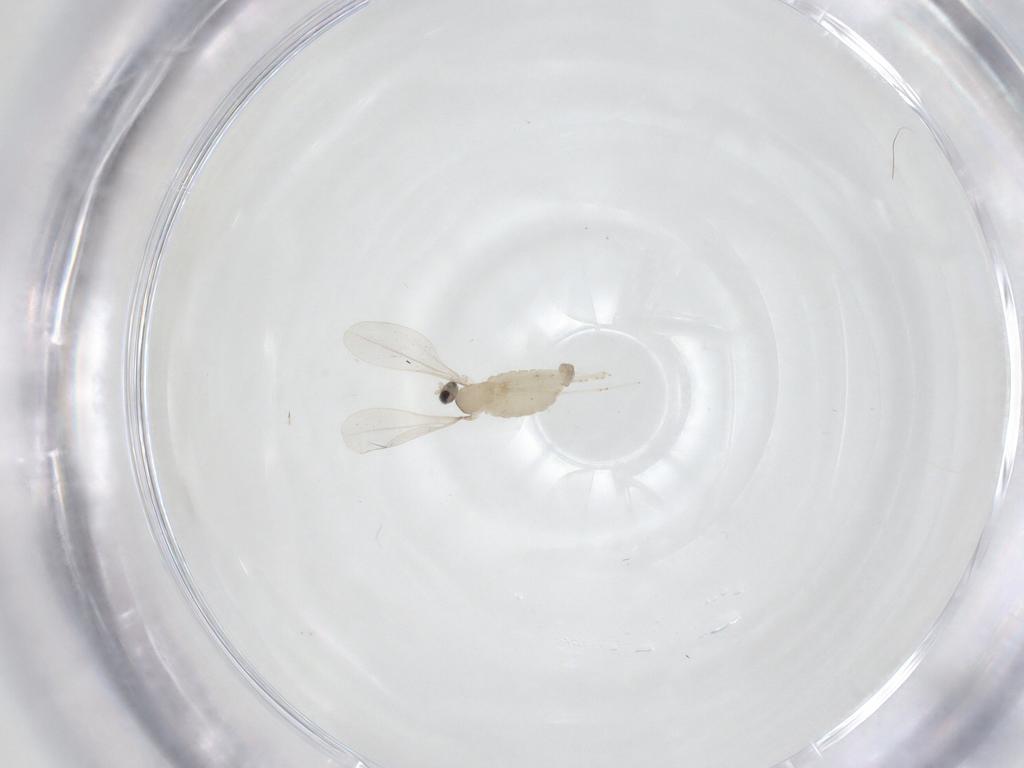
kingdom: Animalia
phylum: Arthropoda
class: Insecta
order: Diptera
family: Cecidomyiidae
